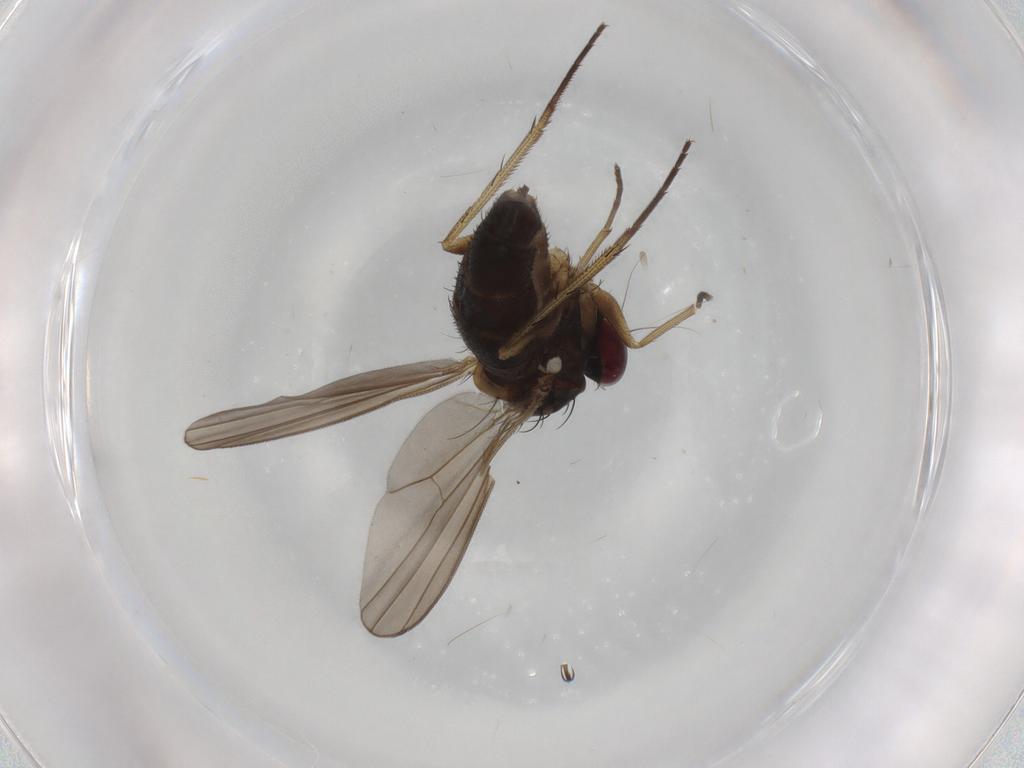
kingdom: Animalia
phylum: Arthropoda
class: Insecta
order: Diptera
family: Dolichopodidae
